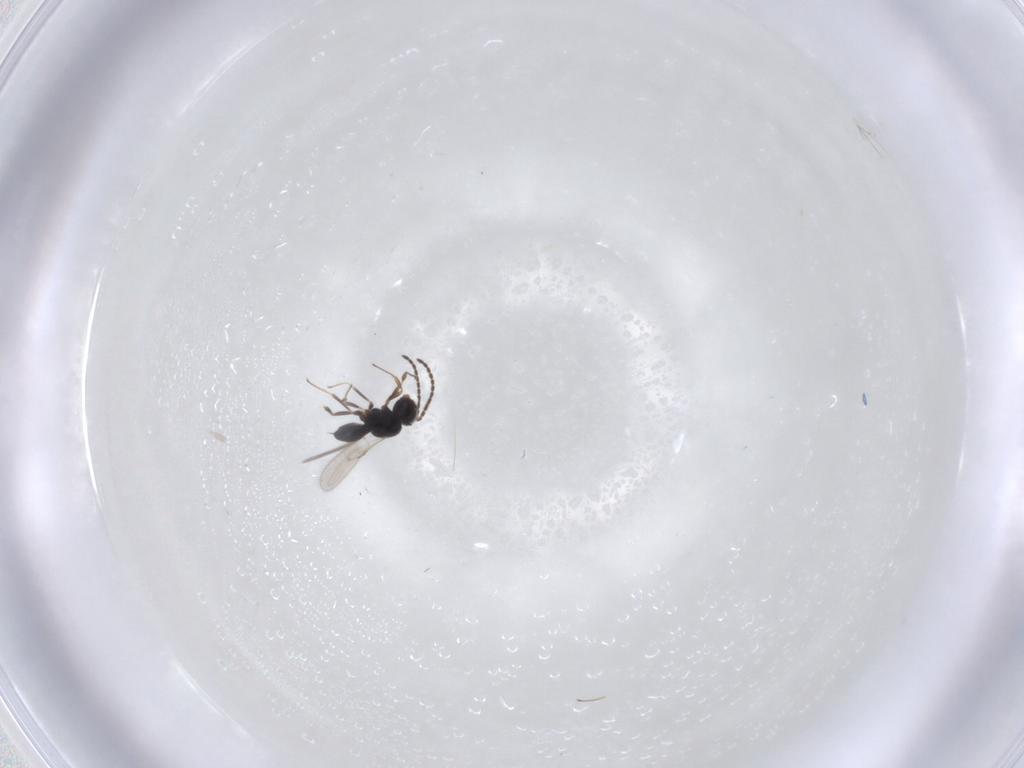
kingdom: Animalia
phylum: Arthropoda
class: Insecta
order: Hymenoptera
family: Scelionidae
